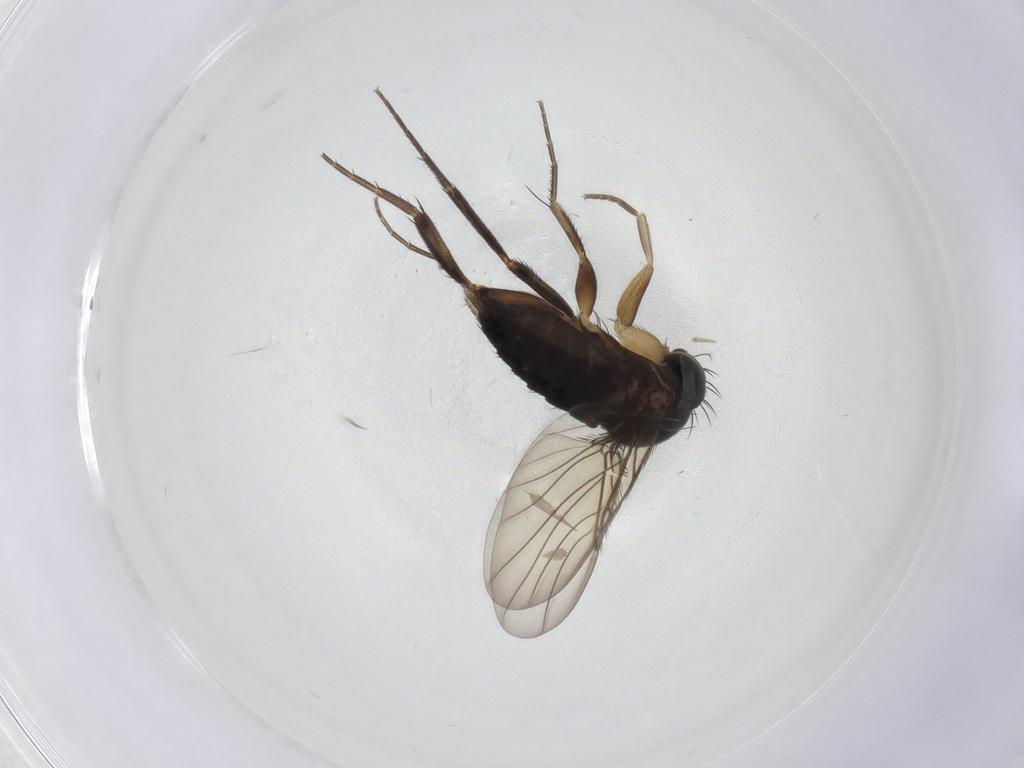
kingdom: Animalia
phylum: Arthropoda
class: Insecta
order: Diptera
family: Phoridae
